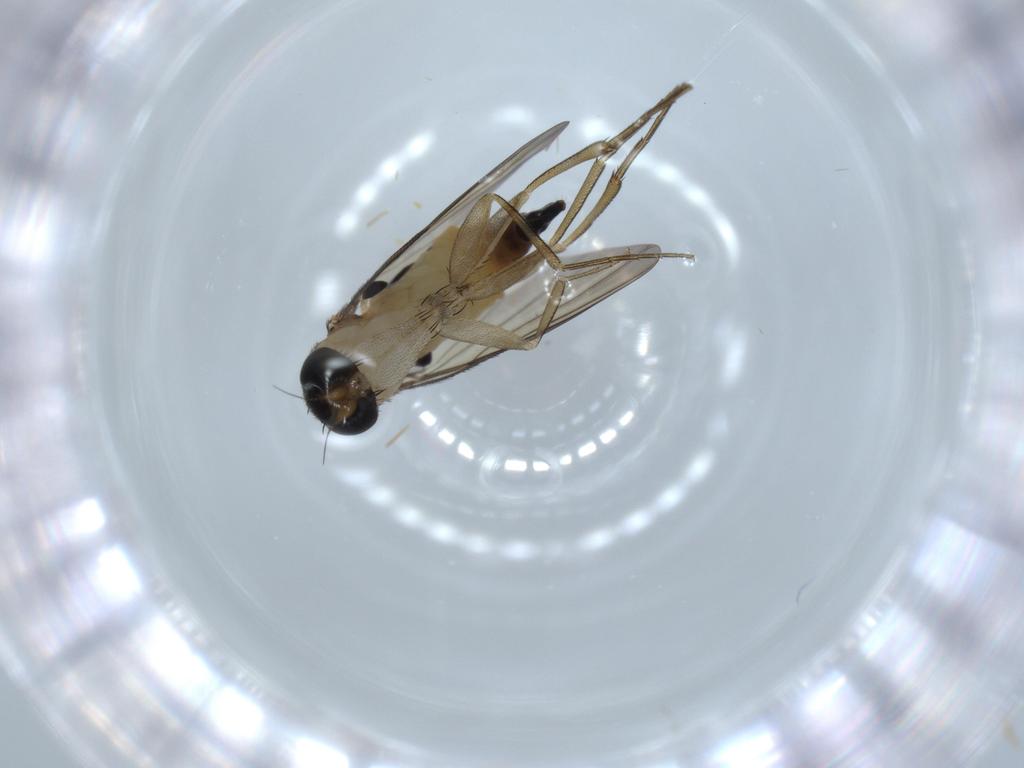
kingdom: Animalia
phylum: Arthropoda
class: Insecta
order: Diptera
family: Phoridae
